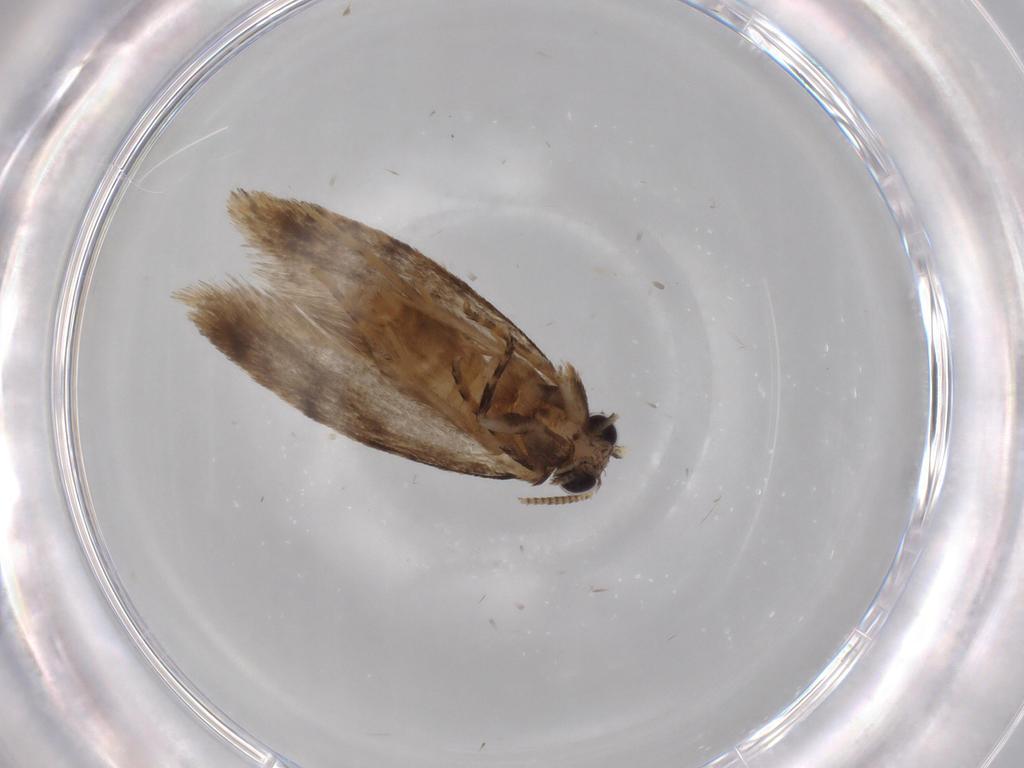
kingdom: Animalia
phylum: Arthropoda
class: Insecta
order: Lepidoptera
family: Tineidae
